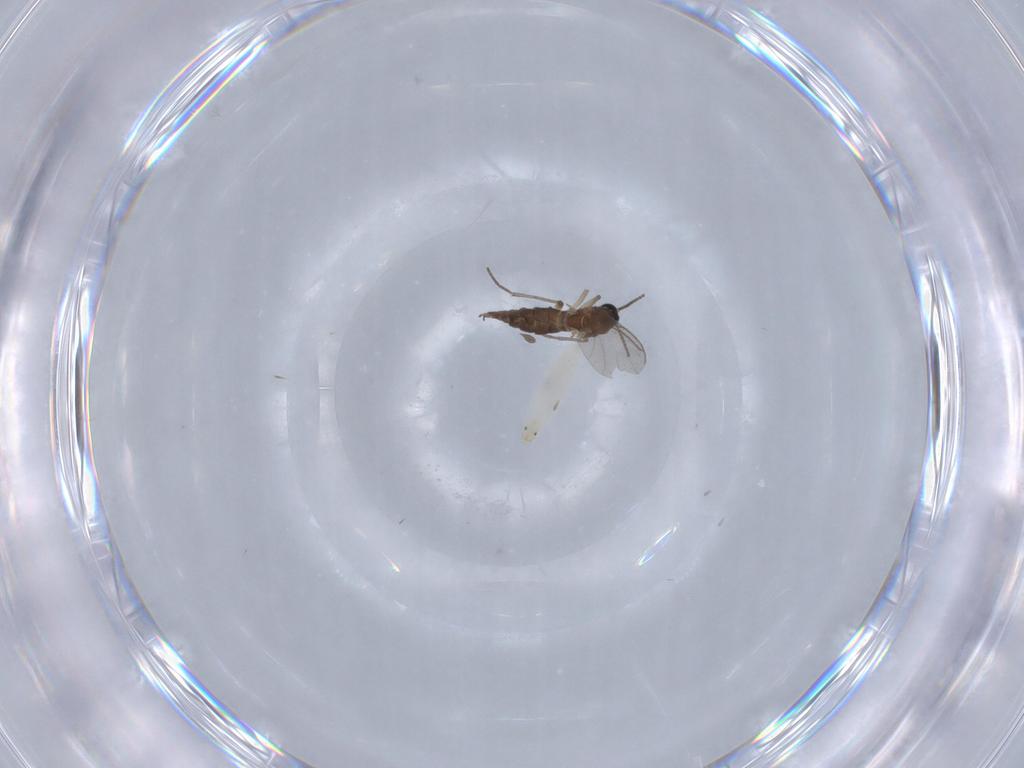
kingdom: Animalia
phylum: Arthropoda
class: Insecta
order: Diptera
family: Sciaridae
